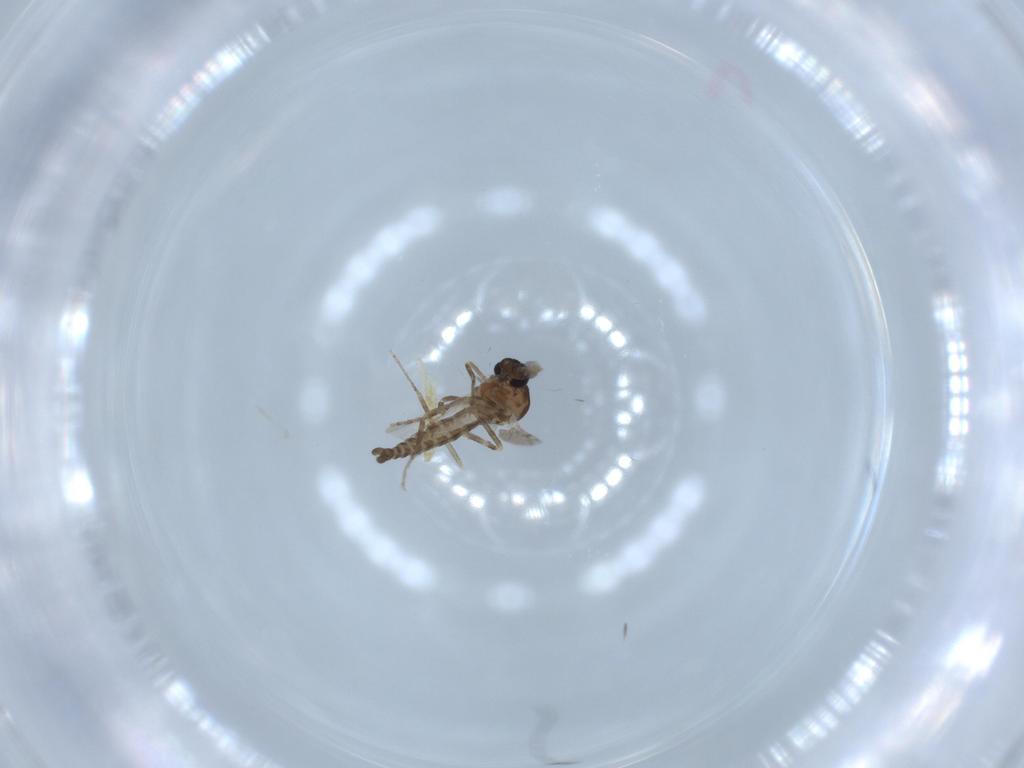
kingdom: Animalia
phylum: Arthropoda
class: Insecta
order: Diptera
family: Ceratopogonidae
